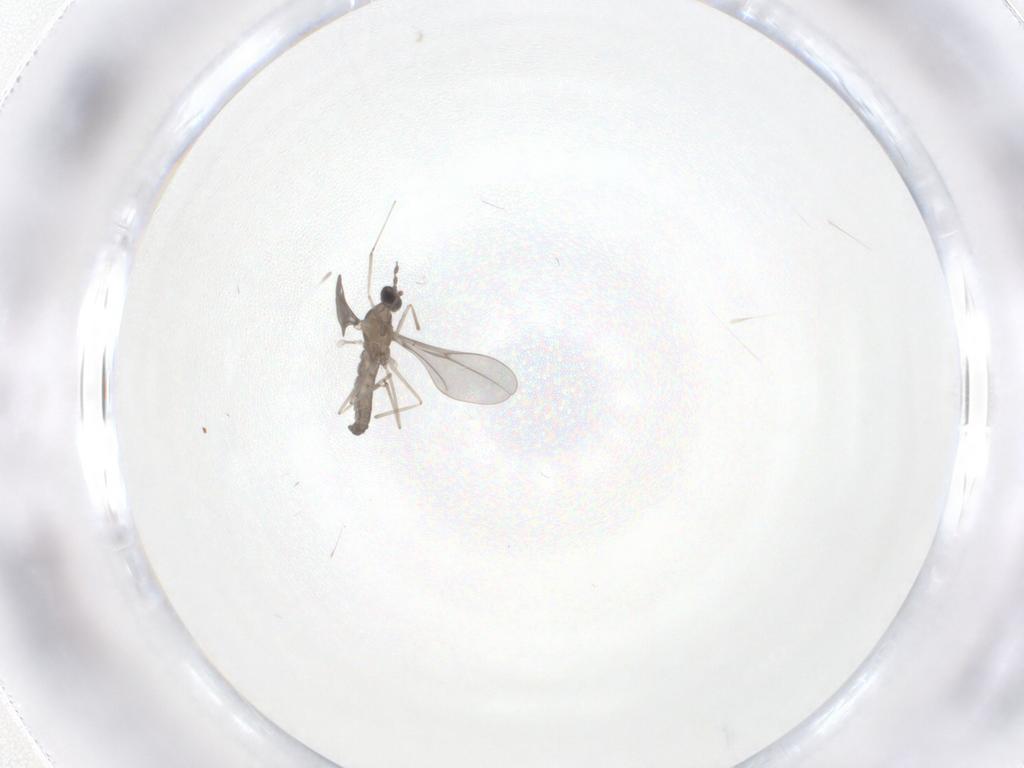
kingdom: Animalia
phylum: Arthropoda
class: Insecta
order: Diptera
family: Cecidomyiidae
